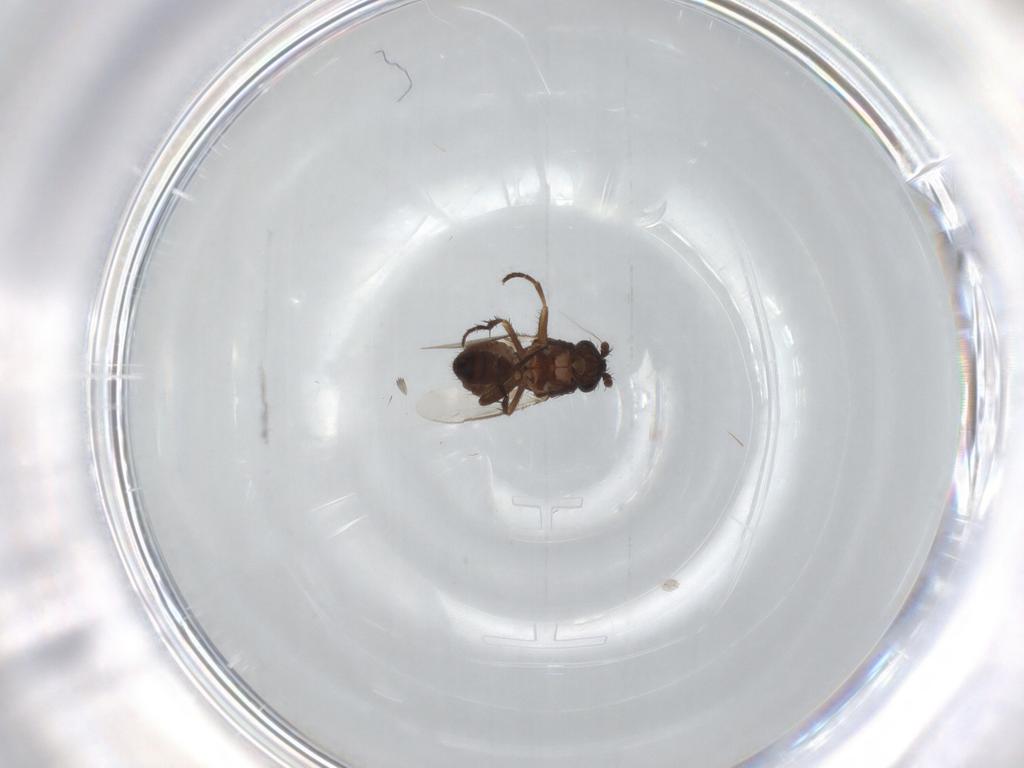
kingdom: Animalia
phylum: Arthropoda
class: Insecta
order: Diptera
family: Sphaeroceridae
